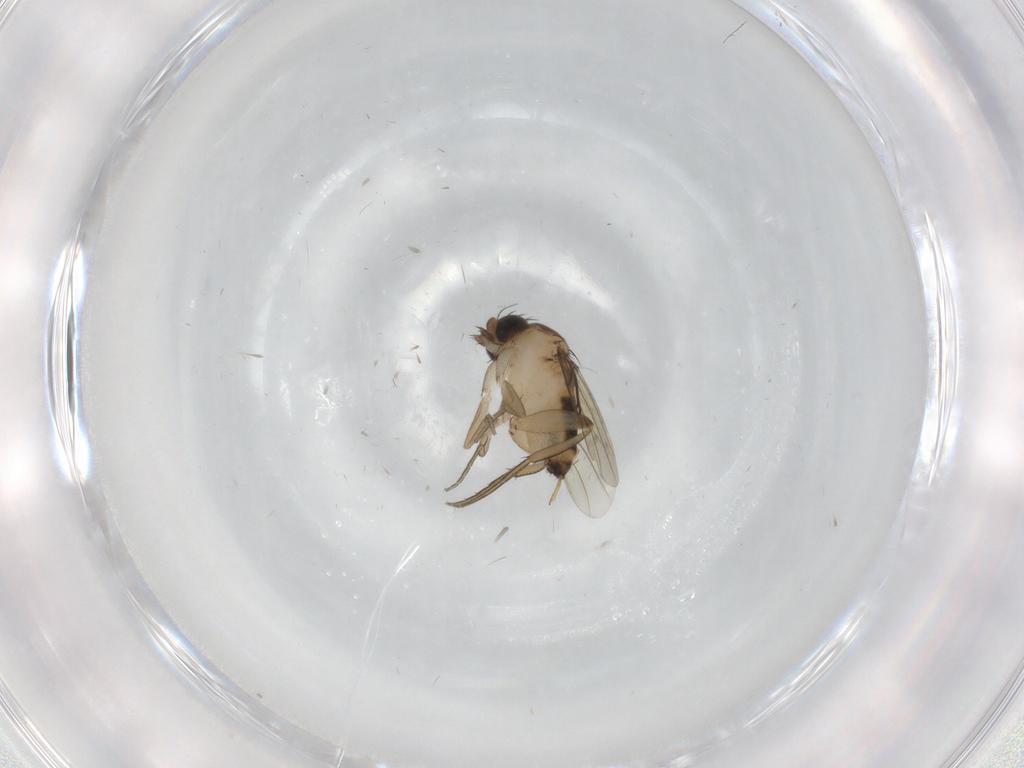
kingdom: Animalia
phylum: Arthropoda
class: Insecta
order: Diptera
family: Phoridae
